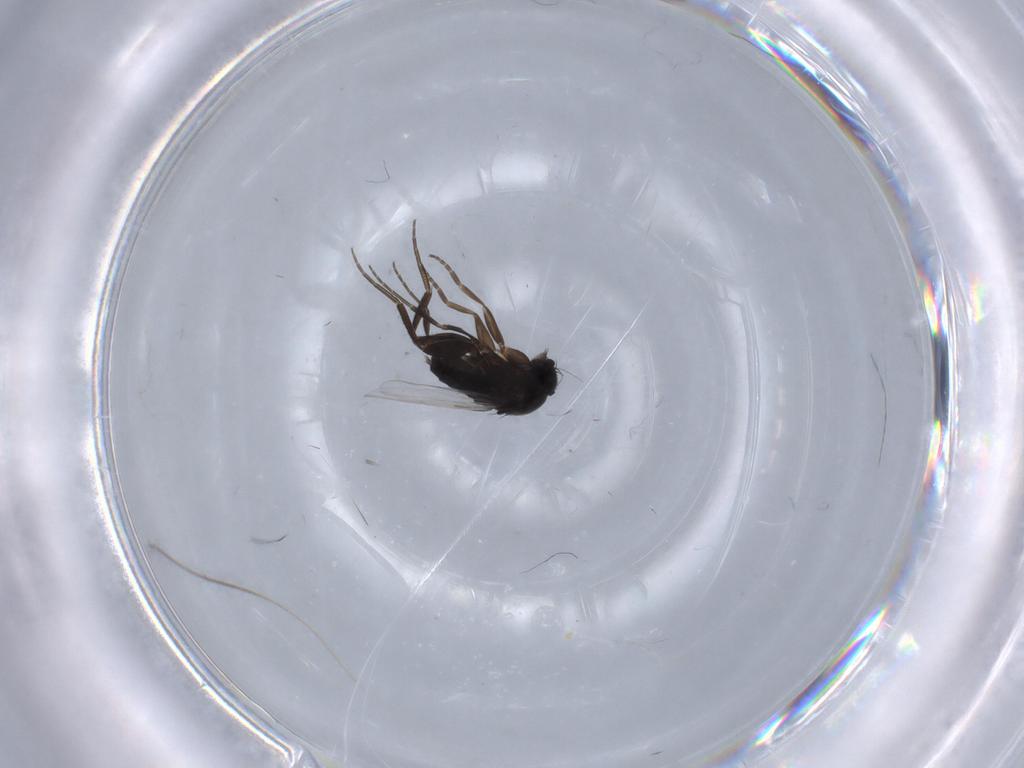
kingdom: Animalia
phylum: Arthropoda
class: Insecta
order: Diptera
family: Phoridae
